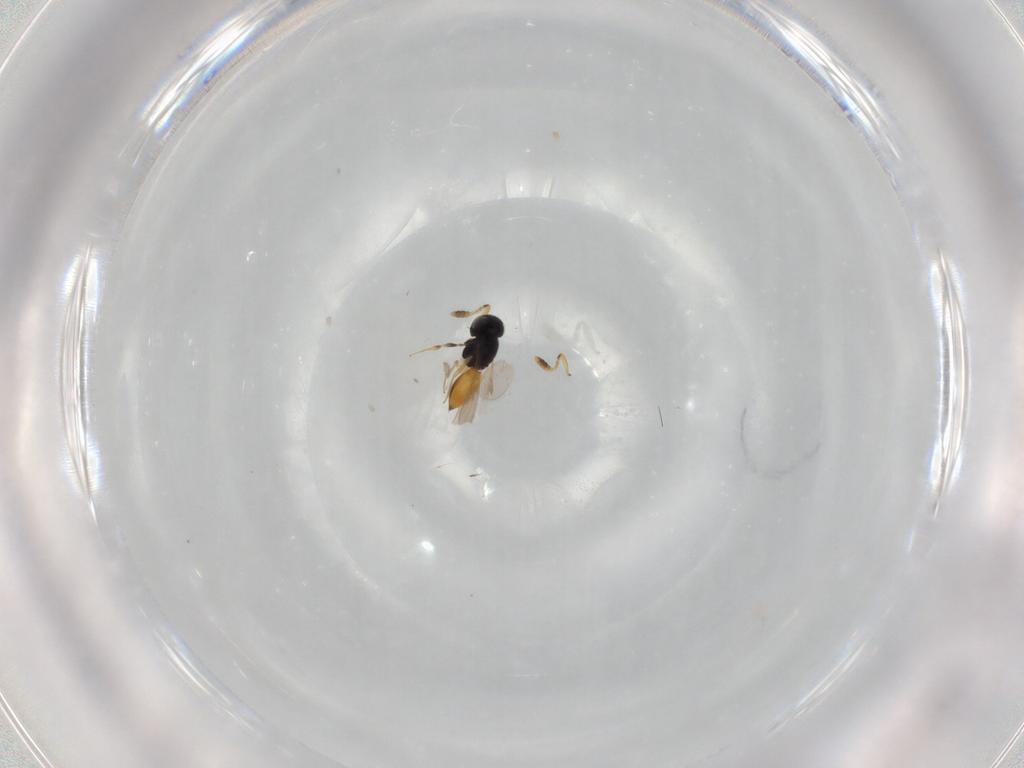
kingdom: Animalia
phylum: Arthropoda
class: Insecta
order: Hymenoptera
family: Scelionidae
